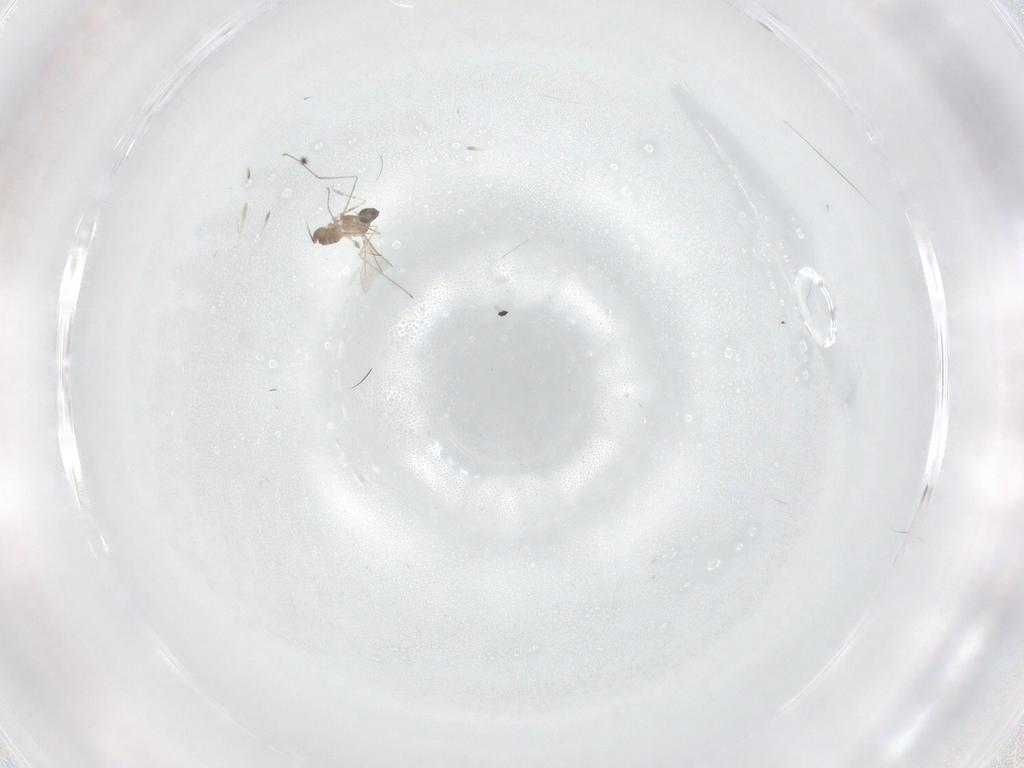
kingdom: Animalia
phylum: Arthropoda
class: Insecta
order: Diptera
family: Cecidomyiidae
